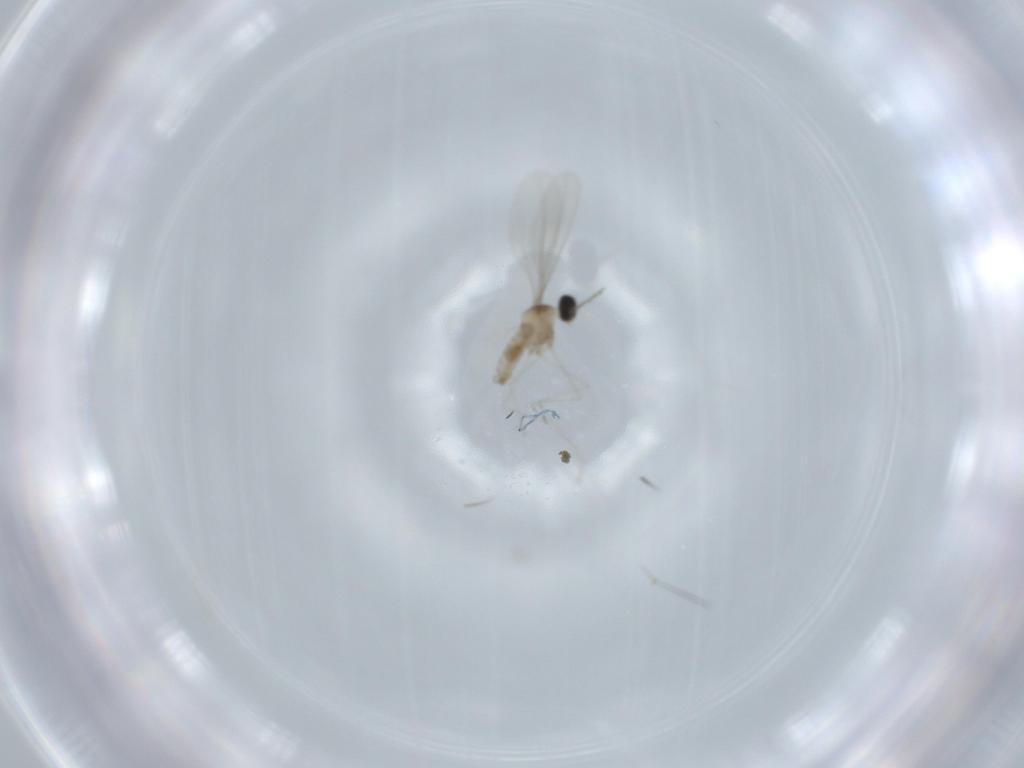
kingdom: Animalia
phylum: Arthropoda
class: Insecta
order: Diptera
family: Cecidomyiidae
